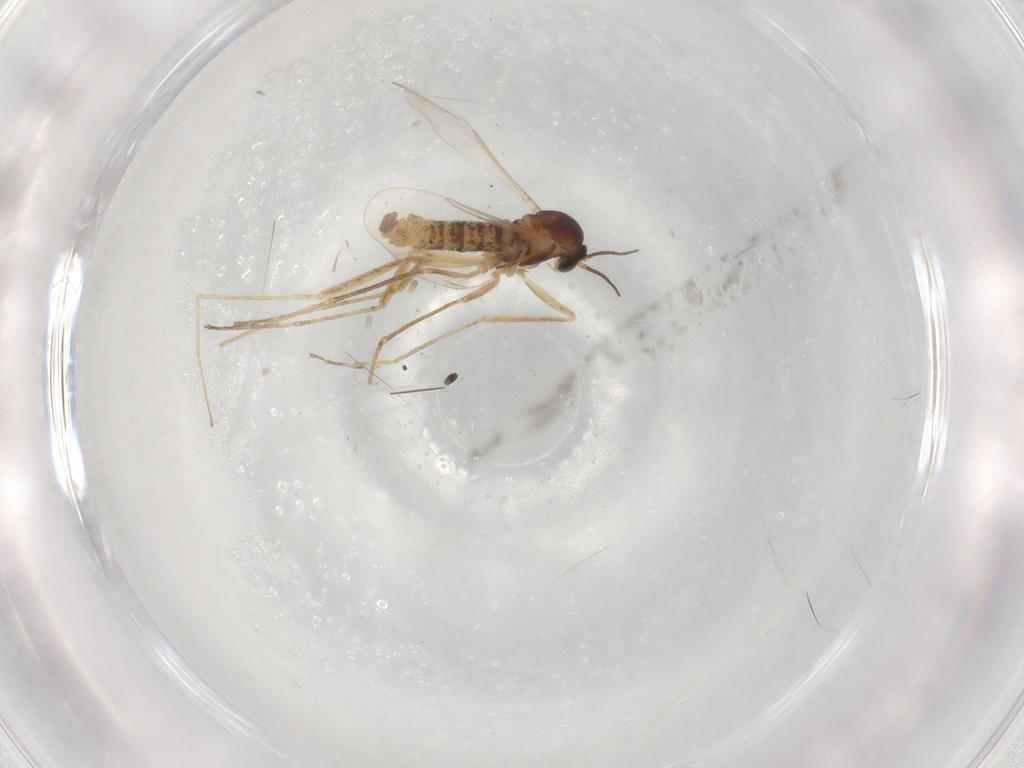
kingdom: Animalia
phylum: Arthropoda
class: Insecta
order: Diptera
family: Cecidomyiidae
